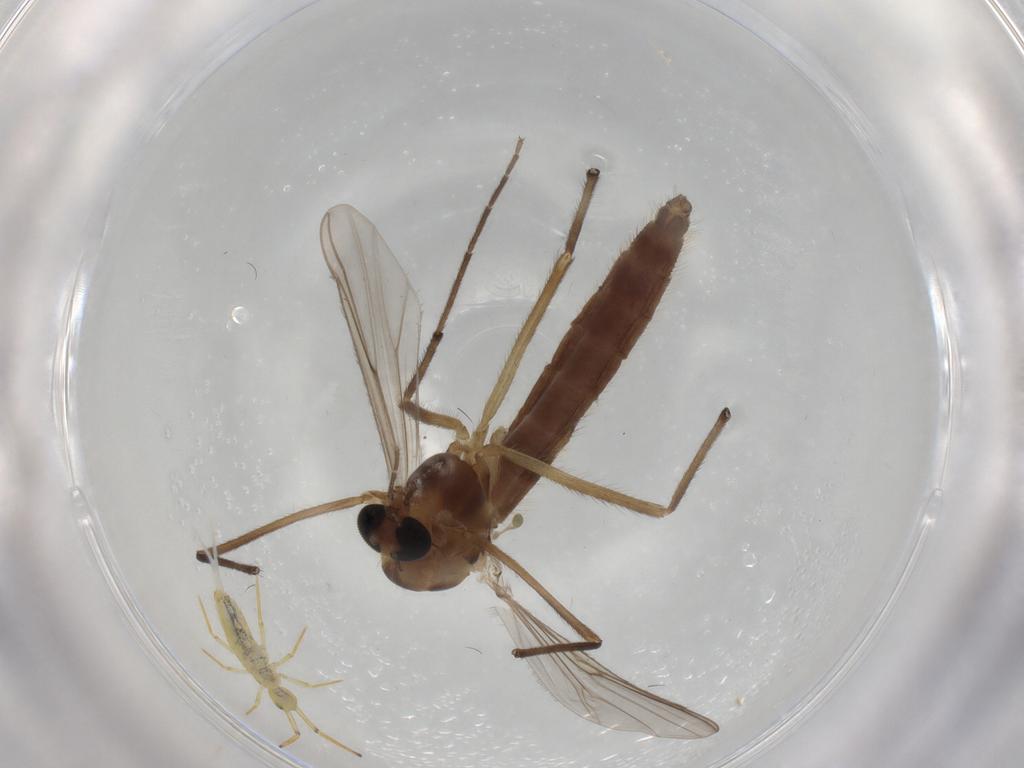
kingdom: Animalia
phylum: Arthropoda
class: Insecta
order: Diptera
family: Chironomidae
